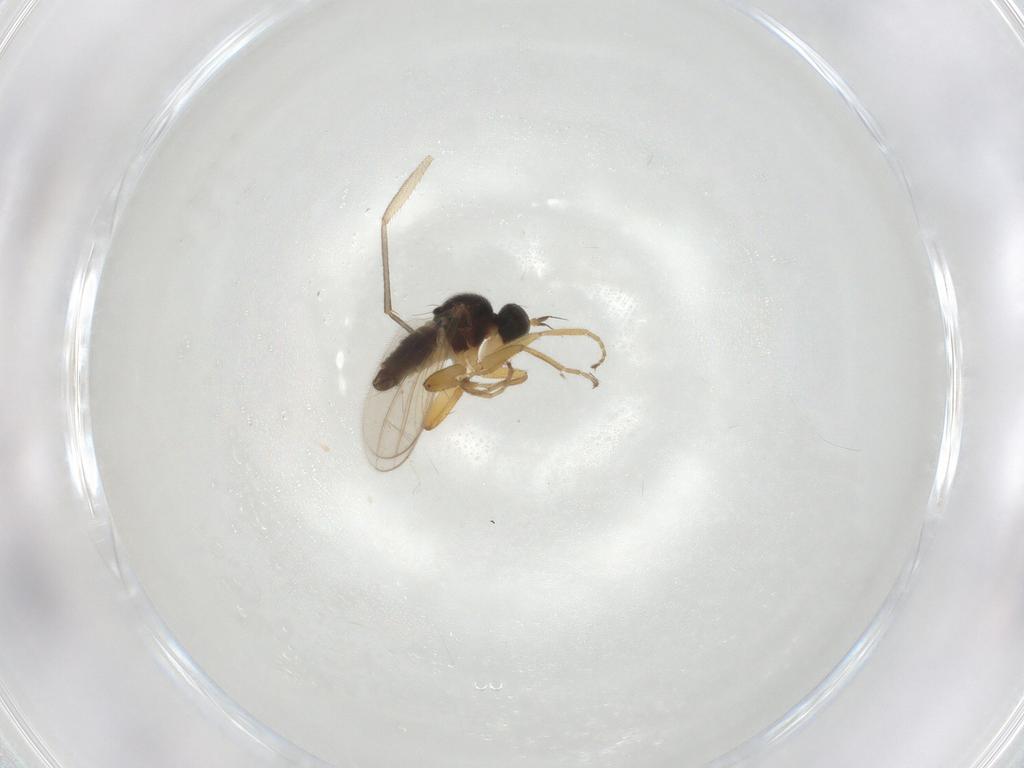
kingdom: Animalia
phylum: Arthropoda
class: Insecta
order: Diptera
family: Hybotidae
